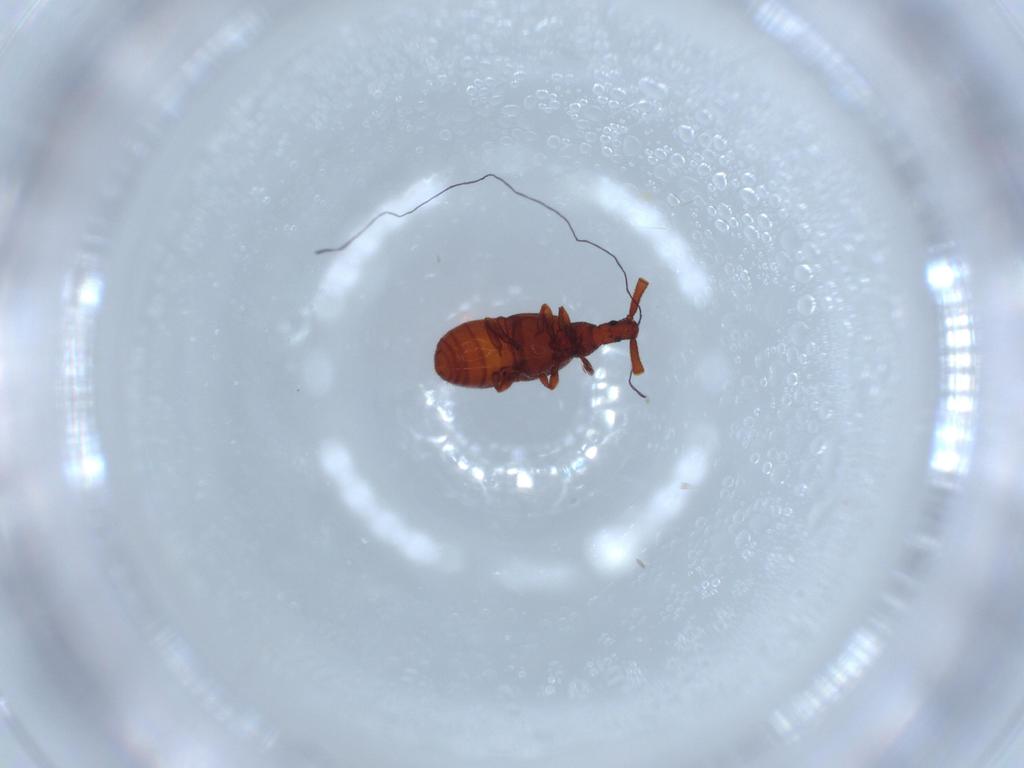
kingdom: Animalia
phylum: Arthropoda
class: Insecta
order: Coleoptera
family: Staphylinidae
